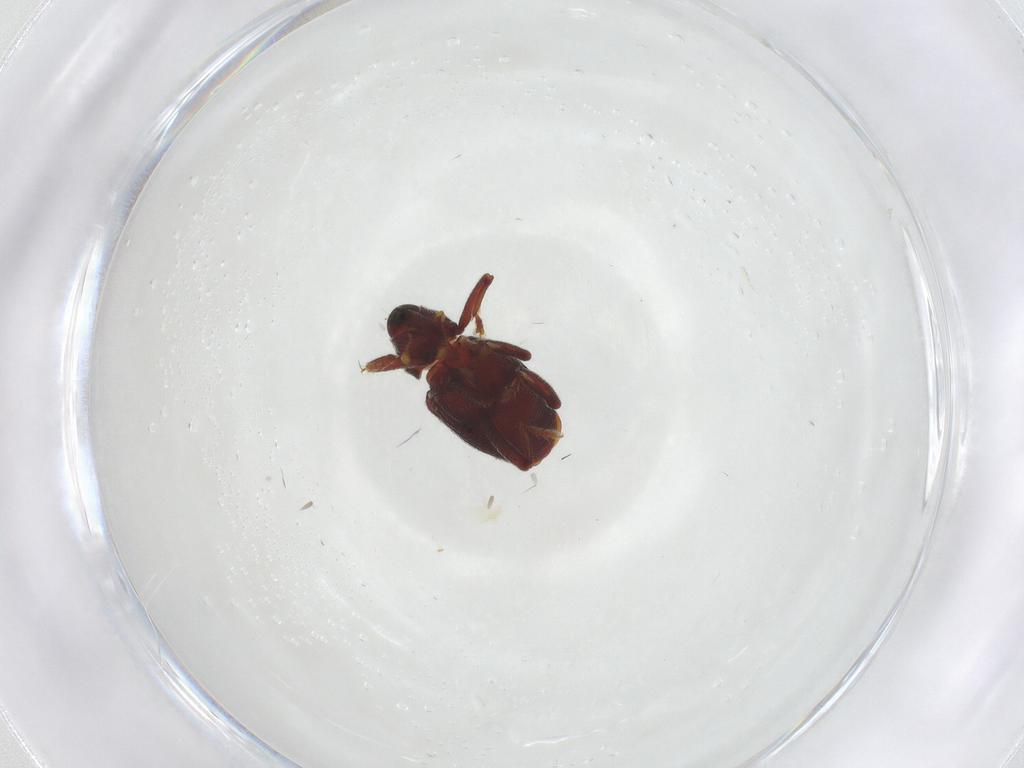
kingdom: Animalia
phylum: Arthropoda
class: Insecta
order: Coleoptera
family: Curculionidae
